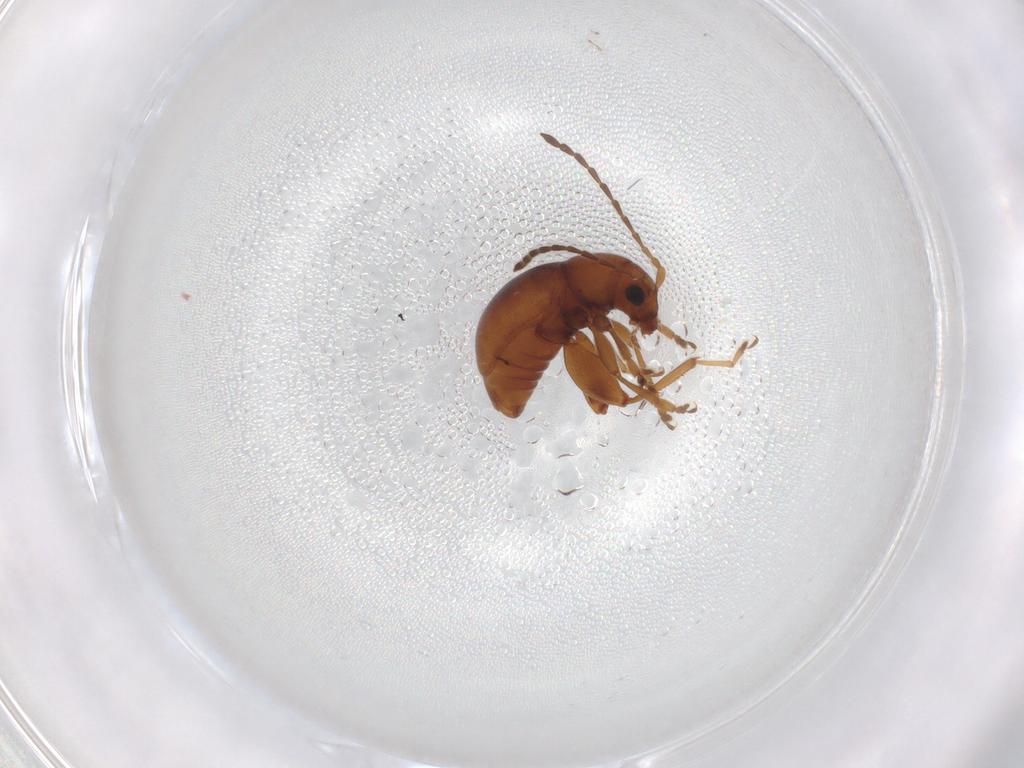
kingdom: Animalia
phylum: Arthropoda
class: Insecta
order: Coleoptera
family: Chrysomelidae
